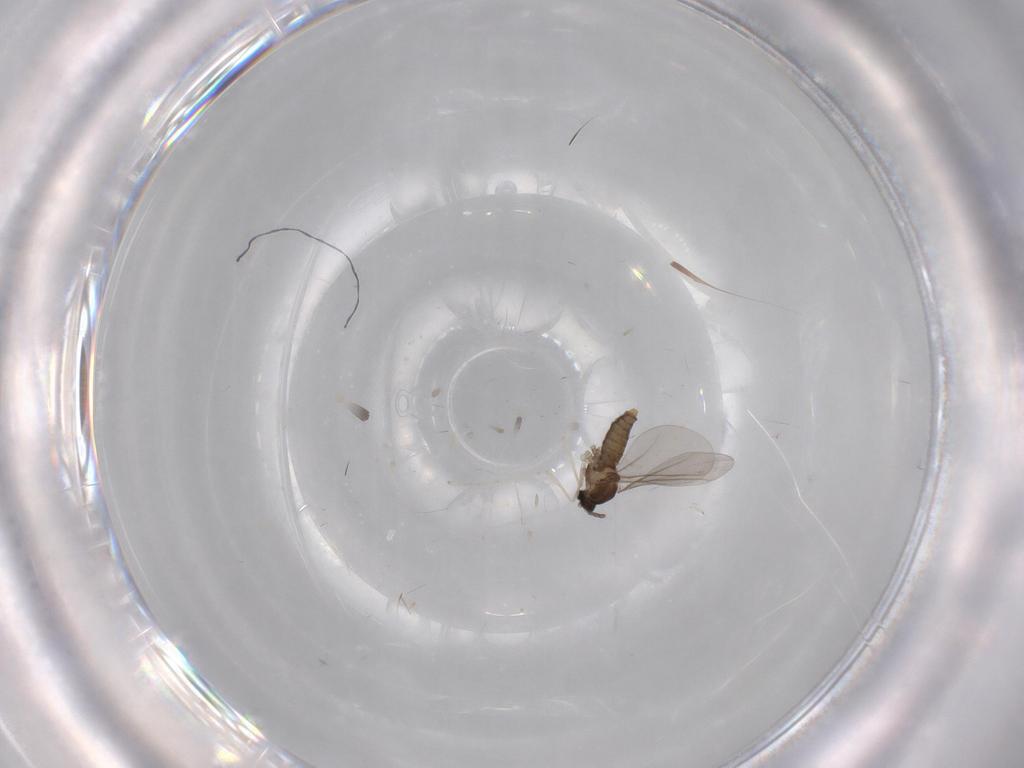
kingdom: Animalia
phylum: Arthropoda
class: Insecta
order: Diptera
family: Cecidomyiidae
